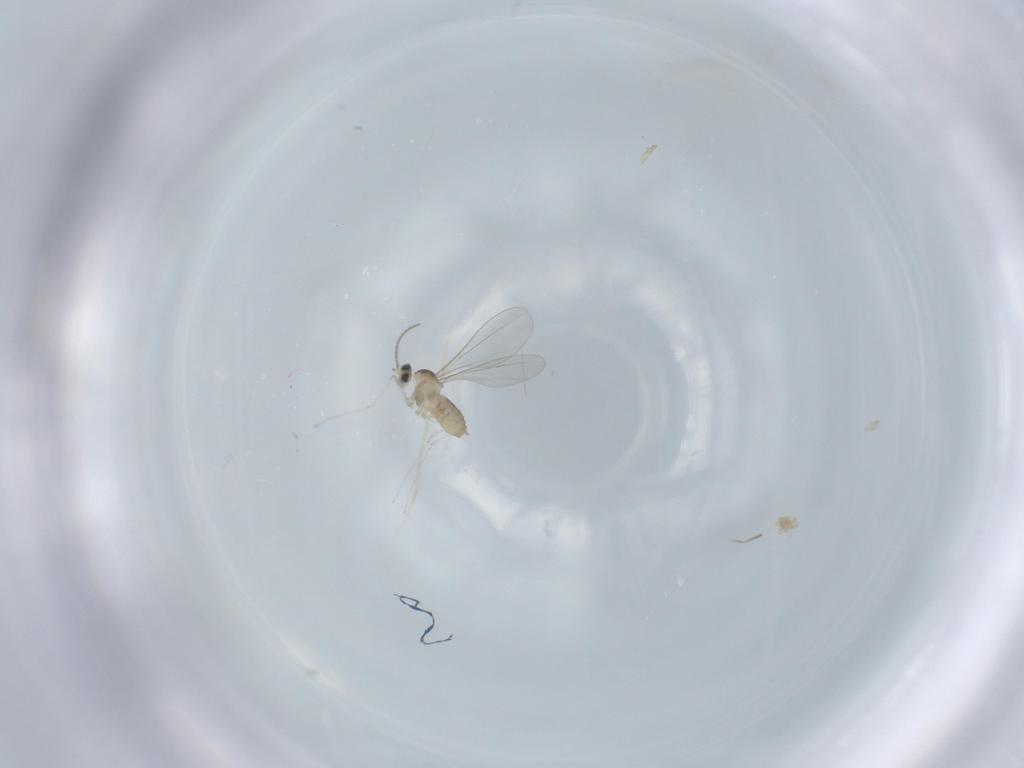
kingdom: Animalia
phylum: Arthropoda
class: Insecta
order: Diptera
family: Cecidomyiidae
